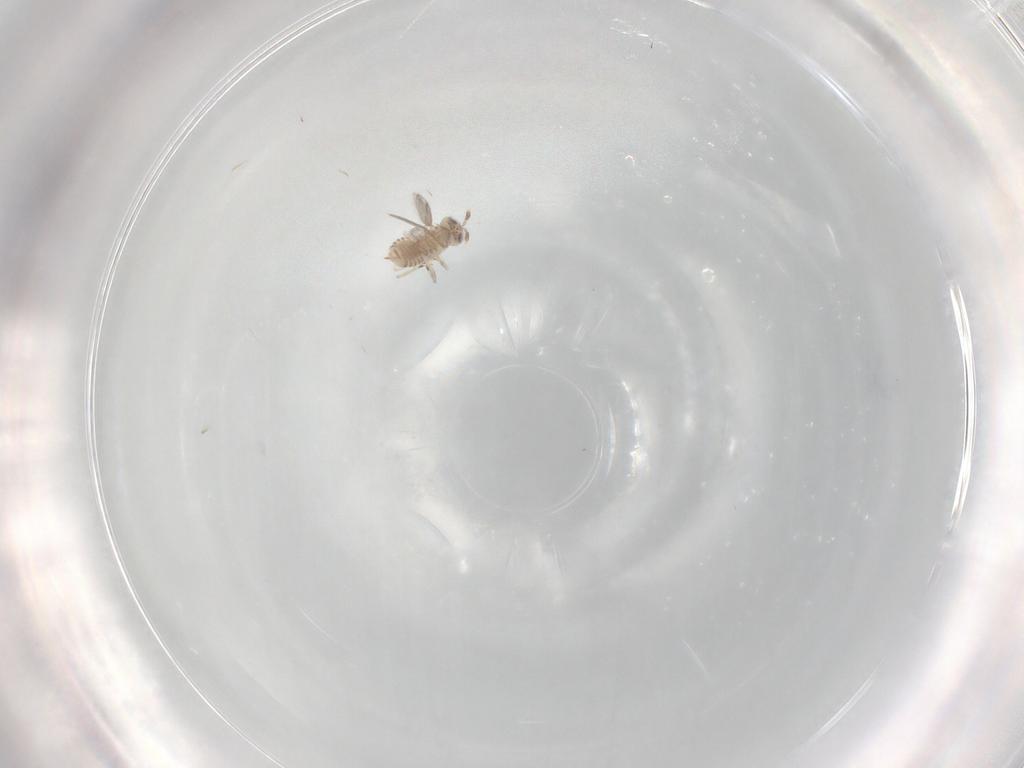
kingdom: Animalia
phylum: Arthropoda
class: Insecta
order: Hymenoptera
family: Aphelinidae
